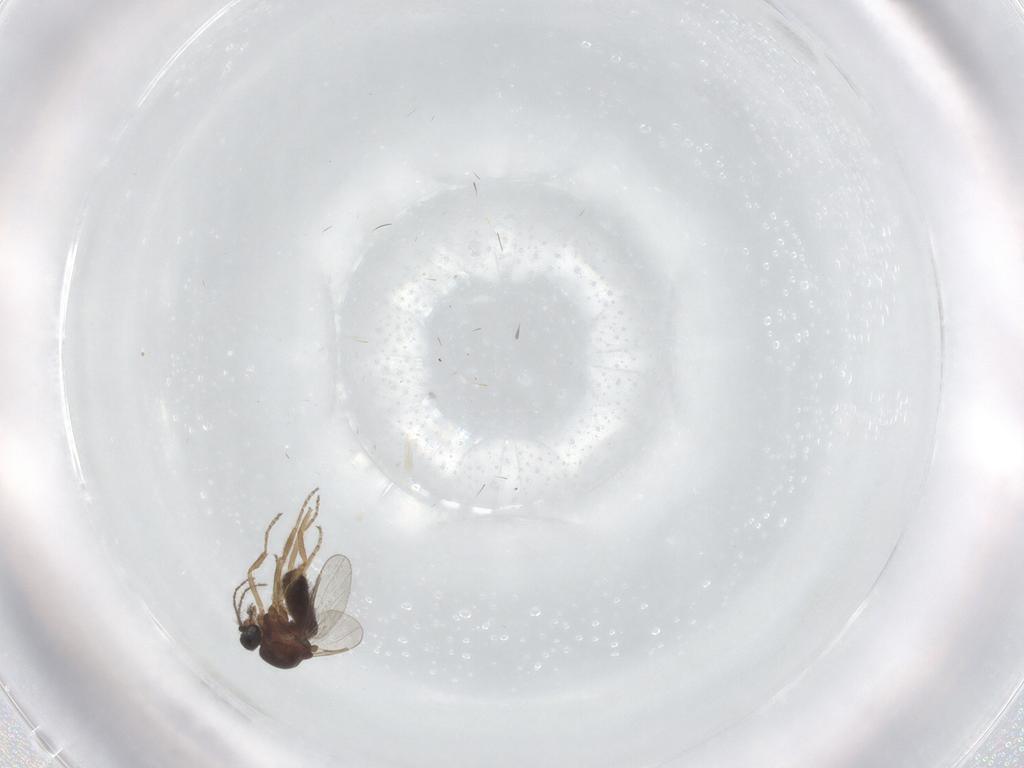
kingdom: Animalia
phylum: Arthropoda
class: Insecta
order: Diptera
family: Ceratopogonidae
